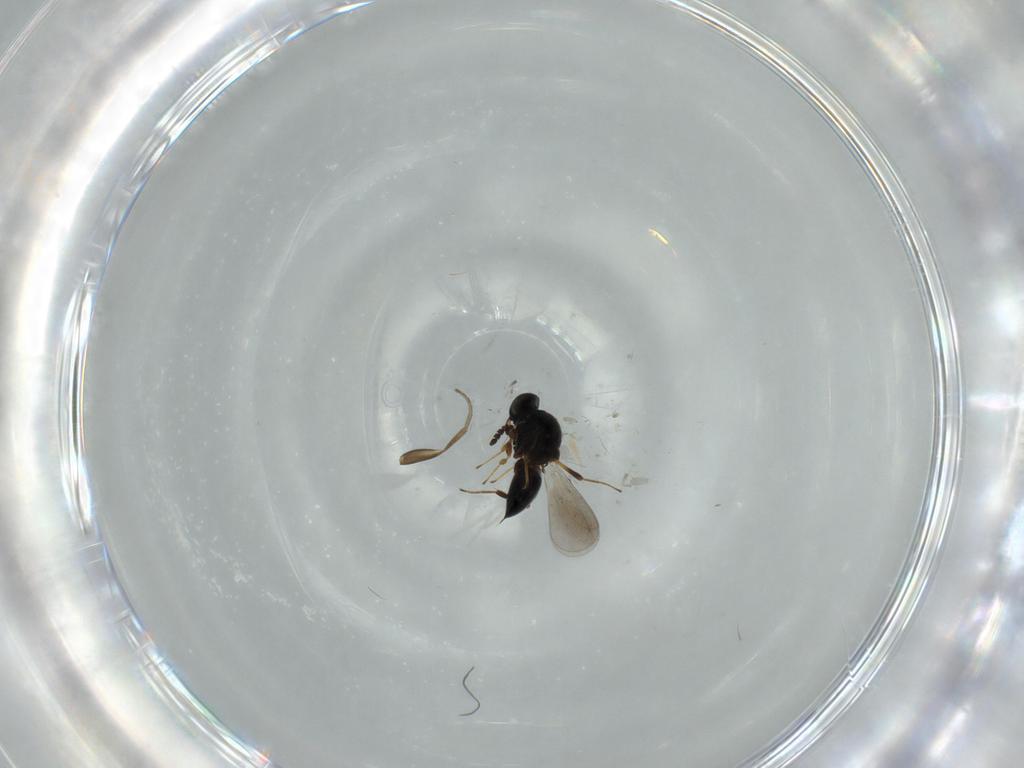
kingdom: Animalia
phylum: Arthropoda
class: Insecta
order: Hymenoptera
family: Platygastridae
